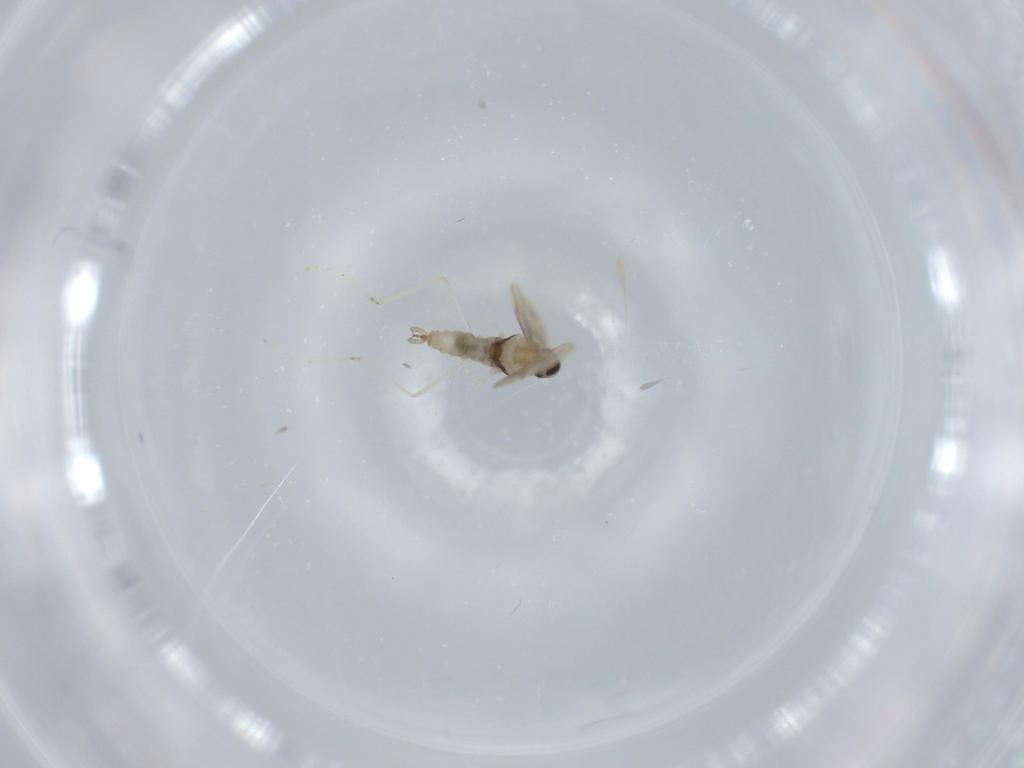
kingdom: Animalia
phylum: Arthropoda
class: Insecta
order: Diptera
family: Cecidomyiidae
